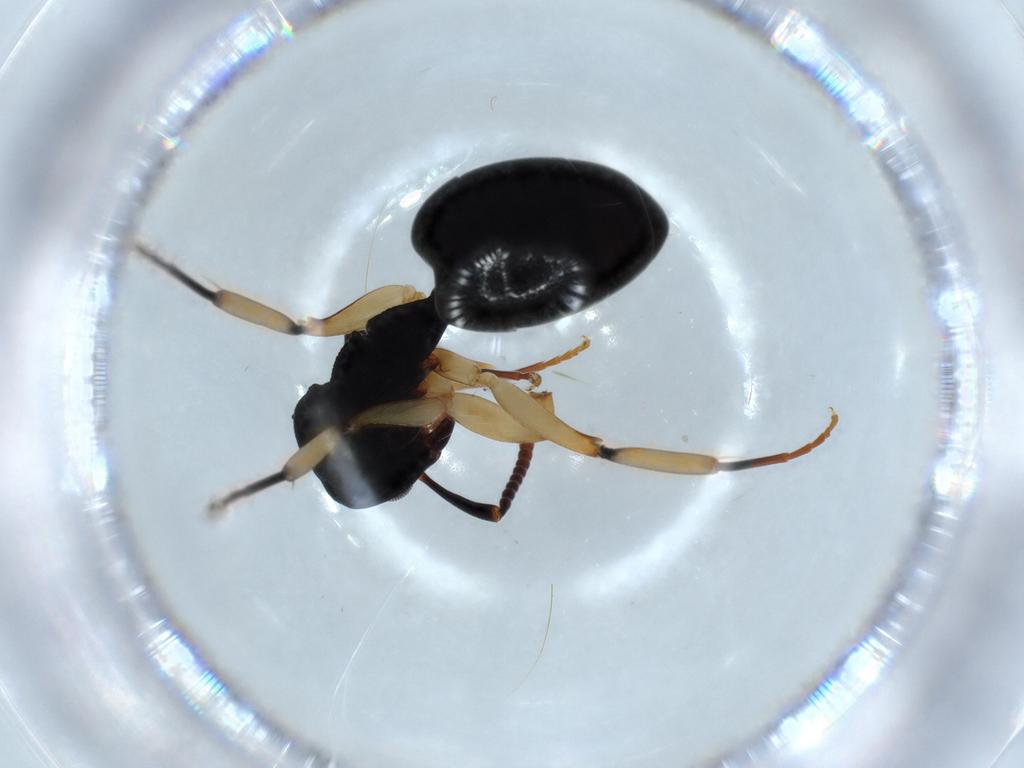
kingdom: Animalia
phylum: Arthropoda
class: Insecta
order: Hymenoptera
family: Formicidae
